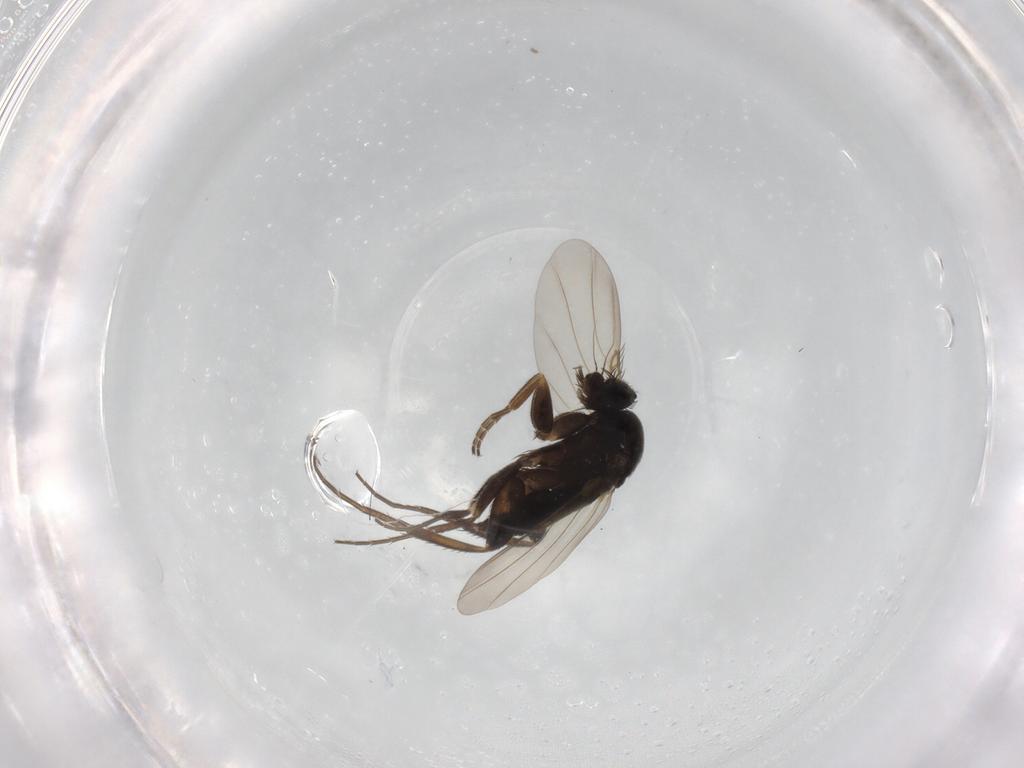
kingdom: Animalia
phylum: Arthropoda
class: Insecta
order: Diptera
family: Phoridae
